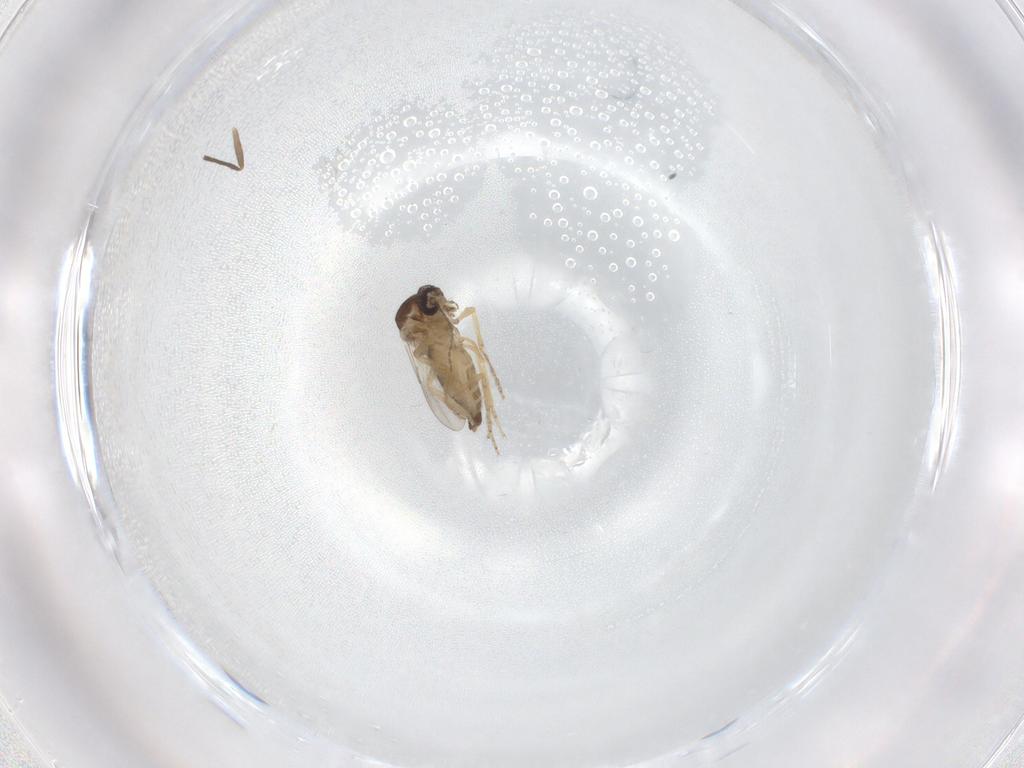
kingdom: Animalia
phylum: Arthropoda
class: Insecta
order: Diptera
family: Ceratopogonidae
